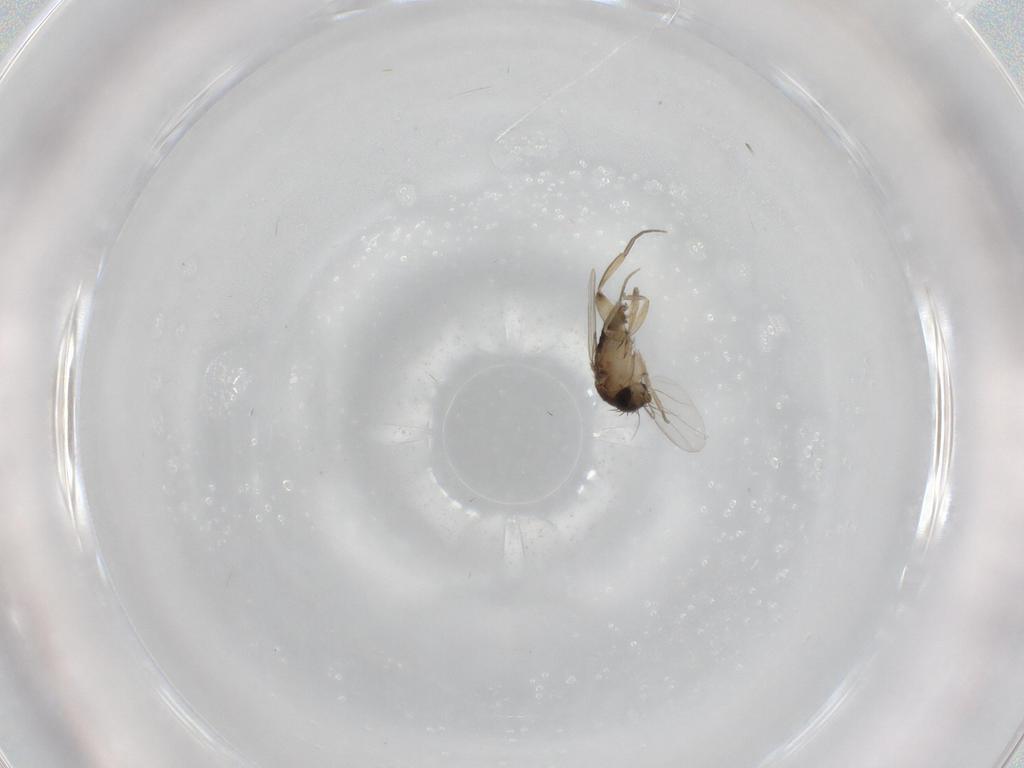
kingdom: Animalia
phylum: Arthropoda
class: Insecta
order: Diptera
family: Phoridae
